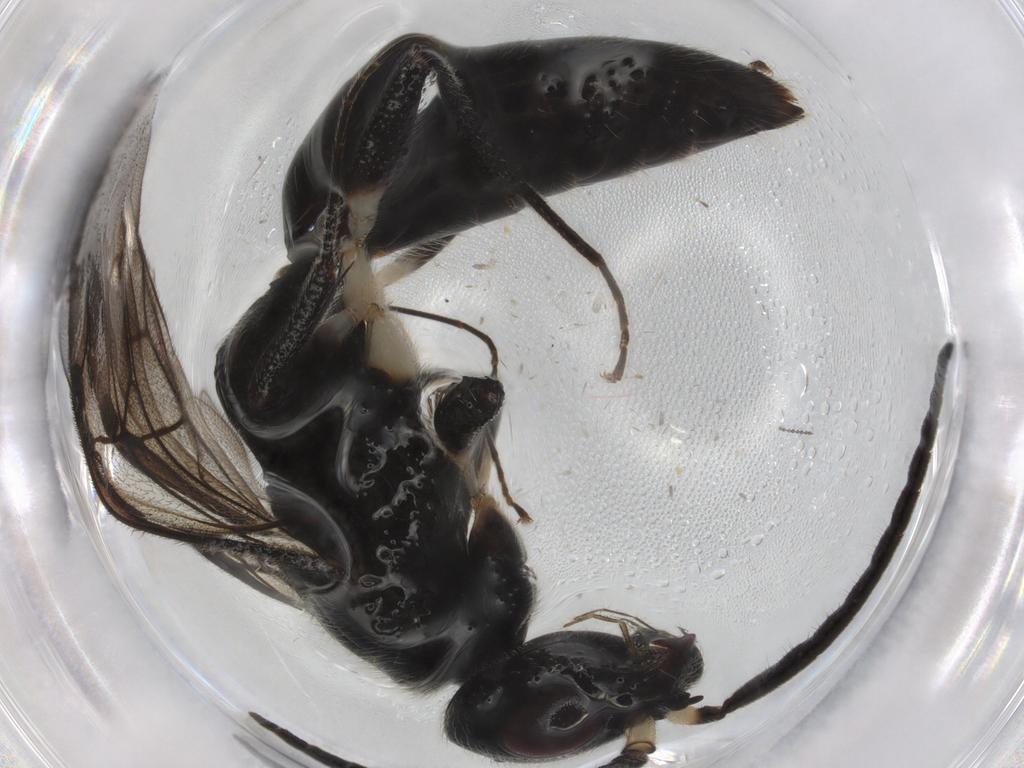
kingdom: Animalia
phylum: Arthropoda
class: Insecta
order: Hymenoptera
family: Bethylidae
